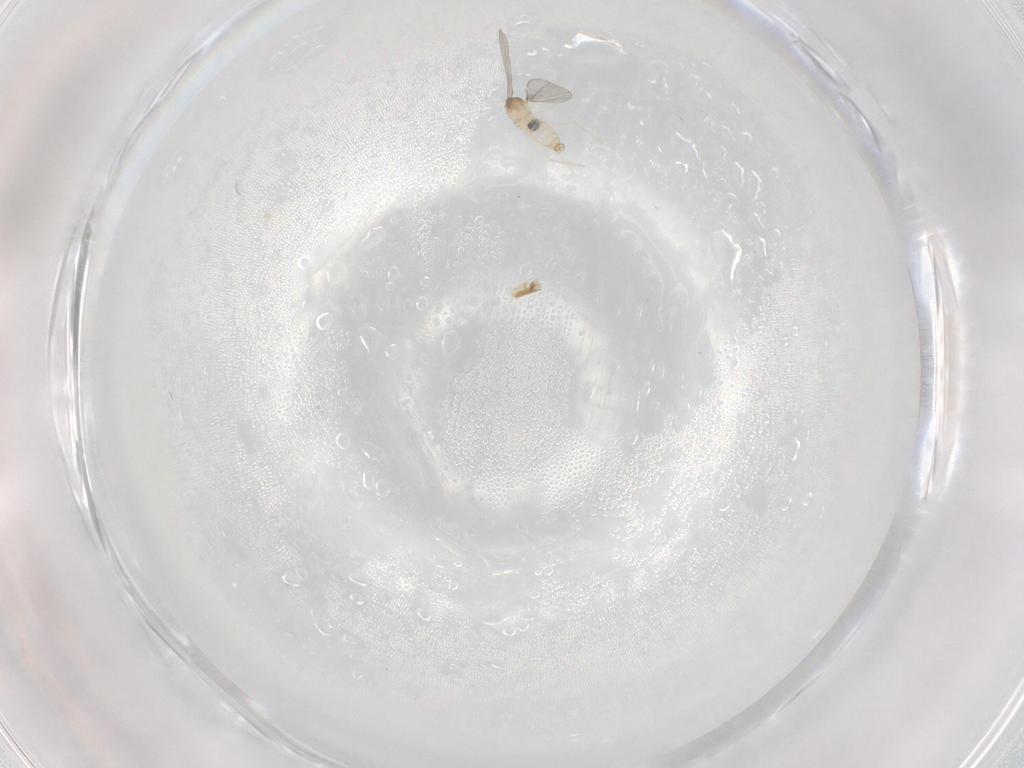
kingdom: Animalia
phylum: Arthropoda
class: Insecta
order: Diptera
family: Cecidomyiidae
